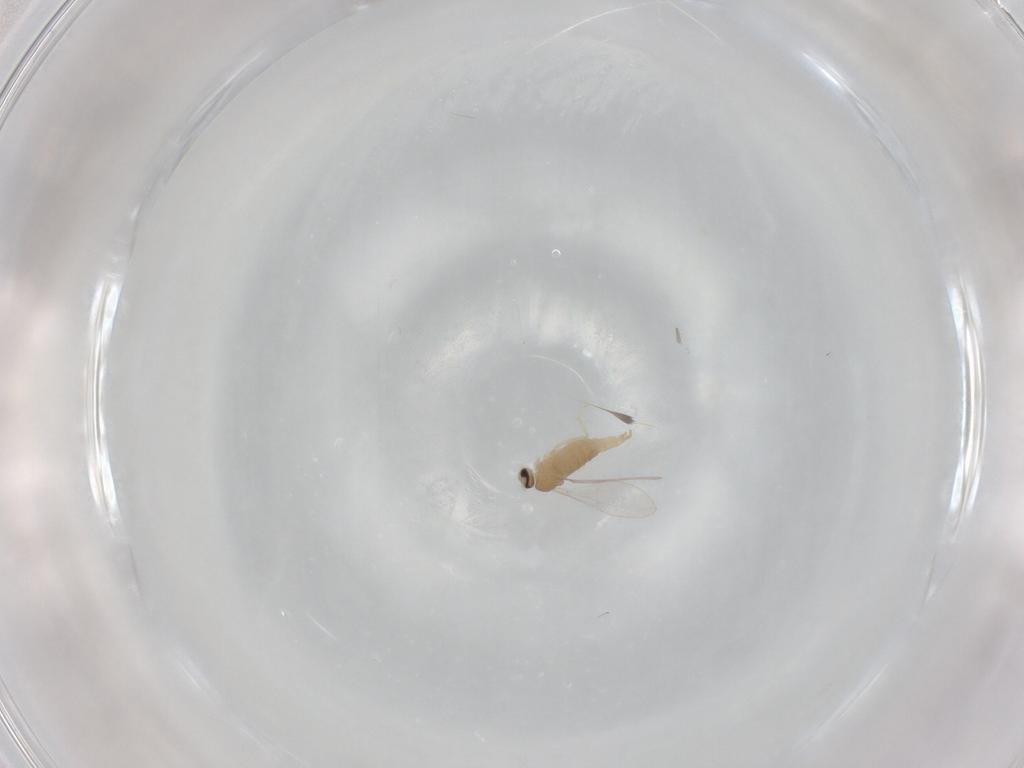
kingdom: Animalia
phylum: Arthropoda
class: Insecta
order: Diptera
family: Cecidomyiidae
